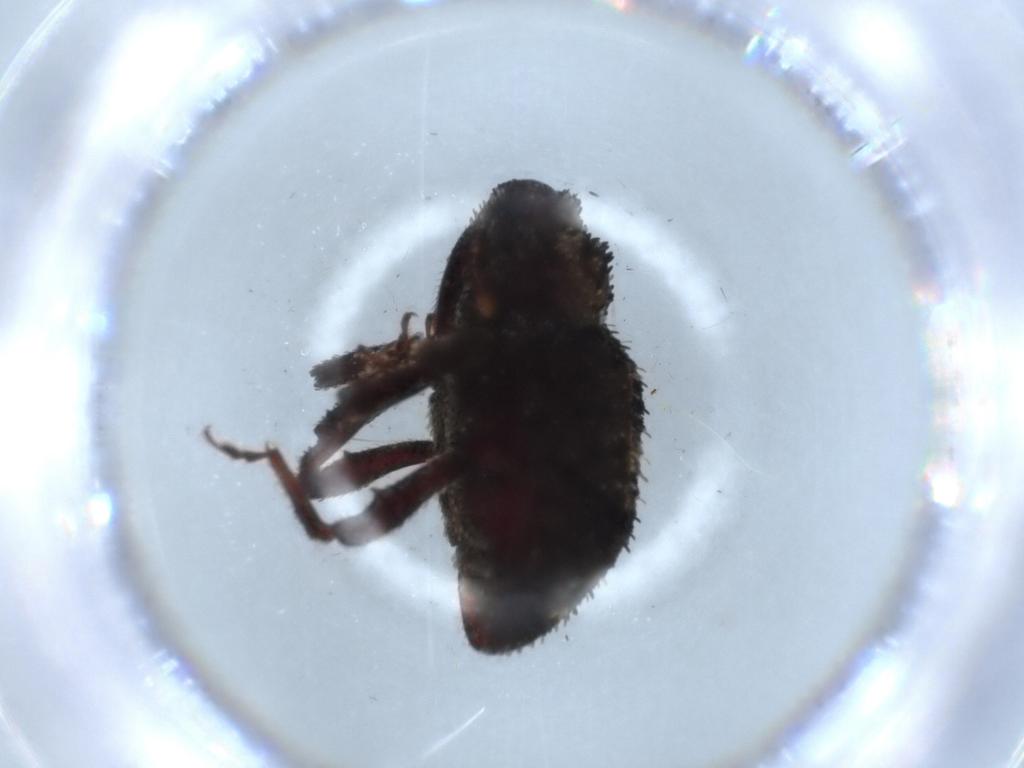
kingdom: Animalia
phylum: Arthropoda
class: Insecta
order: Coleoptera
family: Curculionidae
